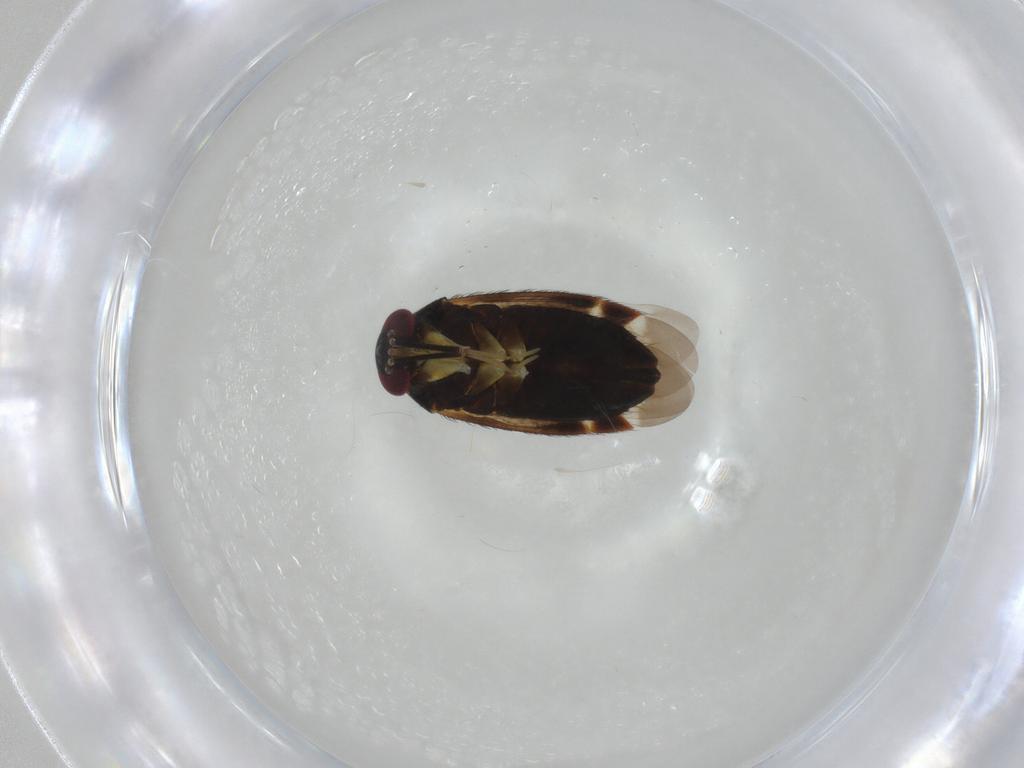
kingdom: Animalia
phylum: Arthropoda
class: Insecta
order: Hemiptera
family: Miridae
